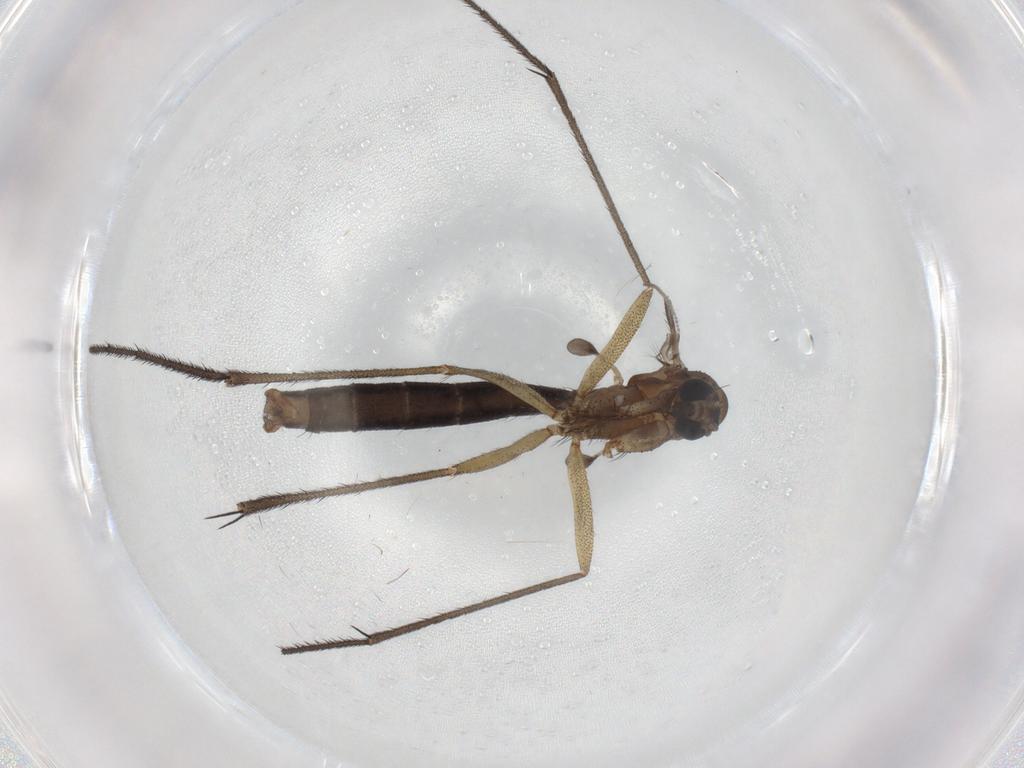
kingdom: Animalia
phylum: Arthropoda
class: Insecta
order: Diptera
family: Ceratopogonidae
